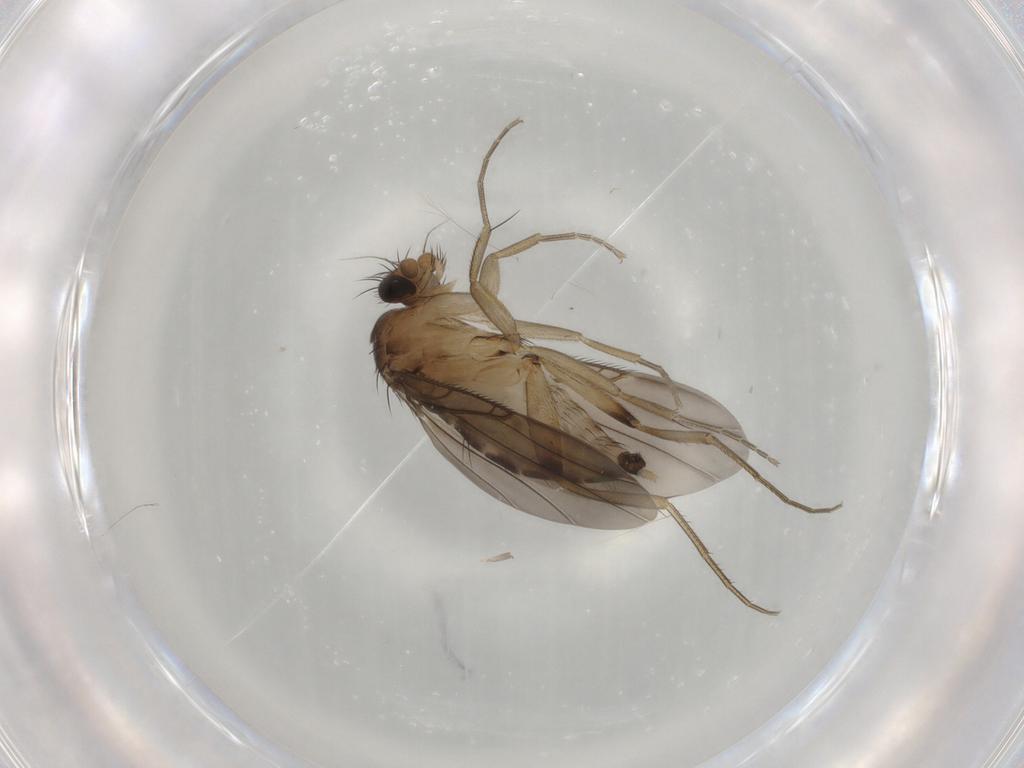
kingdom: Animalia
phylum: Arthropoda
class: Insecta
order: Diptera
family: Phoridae
